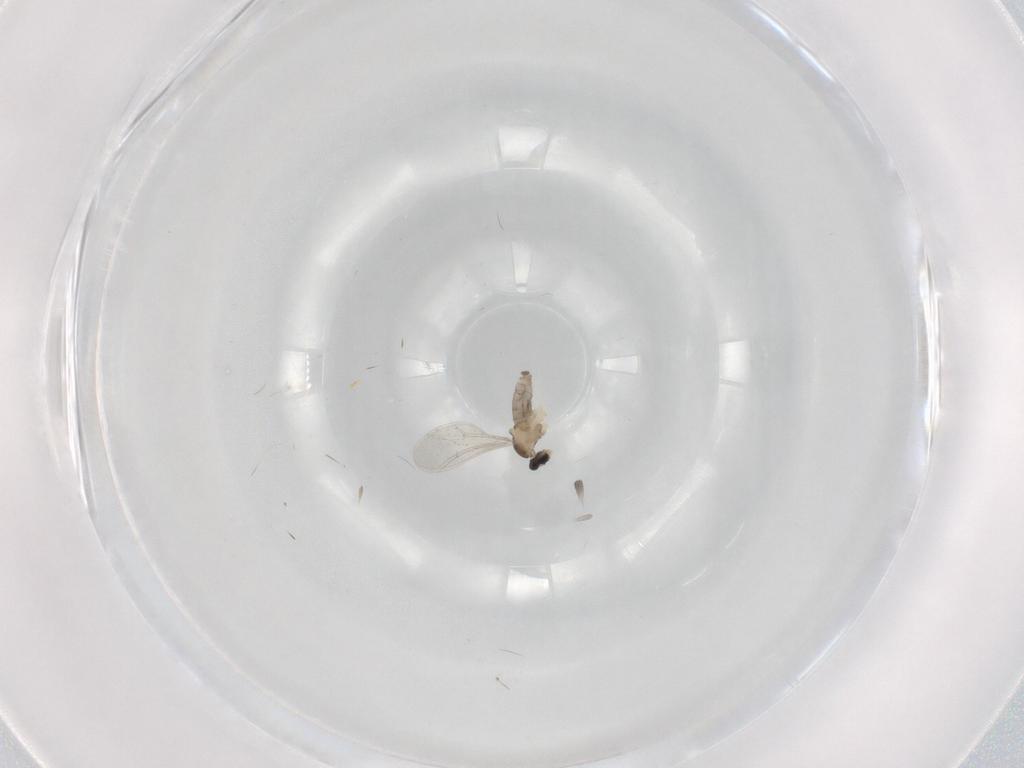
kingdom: Animalia
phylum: Arthropoda
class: Insecta
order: Diptera
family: Cecidomyiidae
